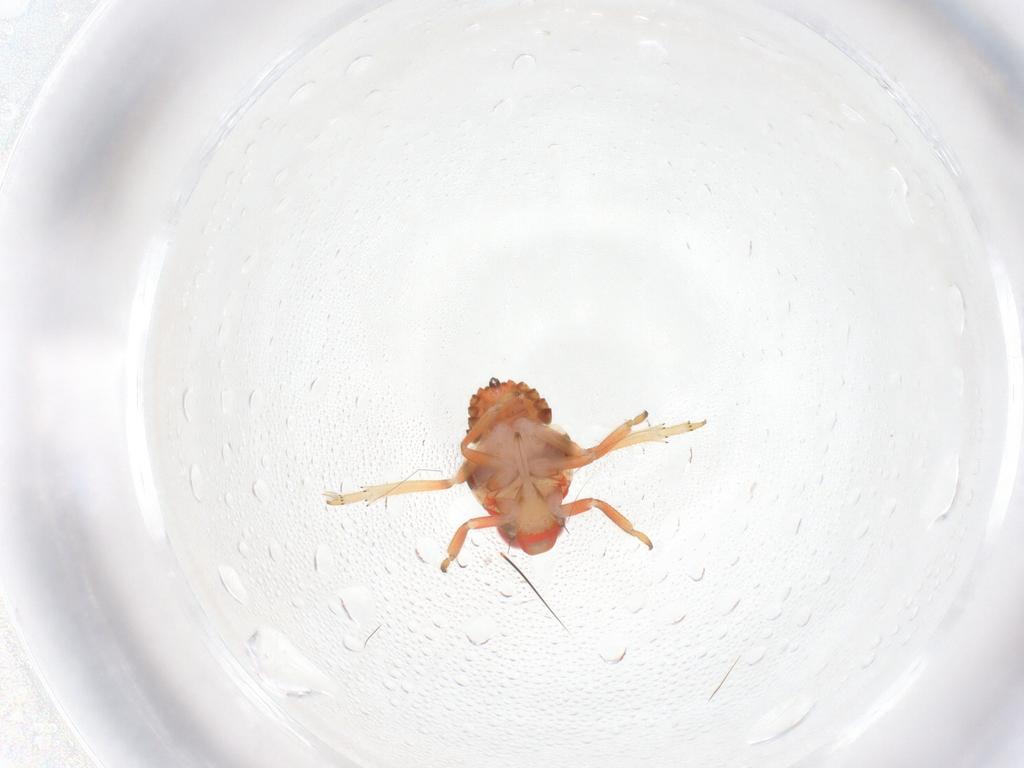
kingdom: Animalia
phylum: Arthropoda
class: Insecta
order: Hemiptera
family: Issidae
